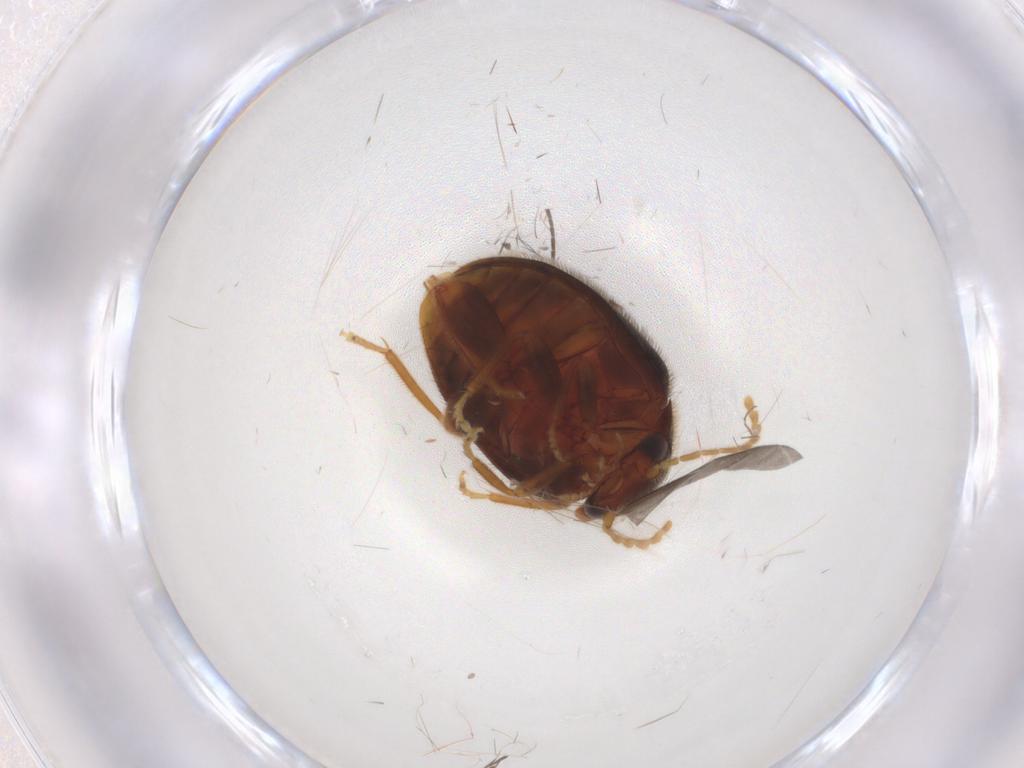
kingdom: Animalia
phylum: Arthropoda
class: Insecta
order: Coleoptera
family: Scirtidae
